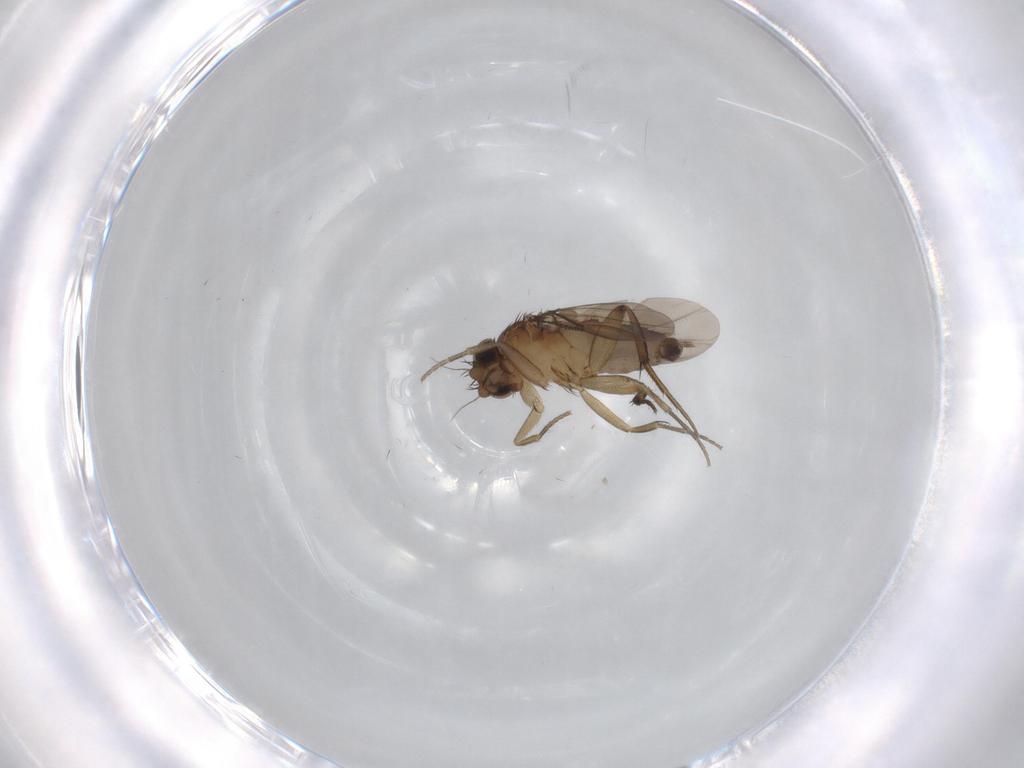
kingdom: Animalia
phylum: Arthropoda
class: Insecta
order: Diptera
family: Phoridae
